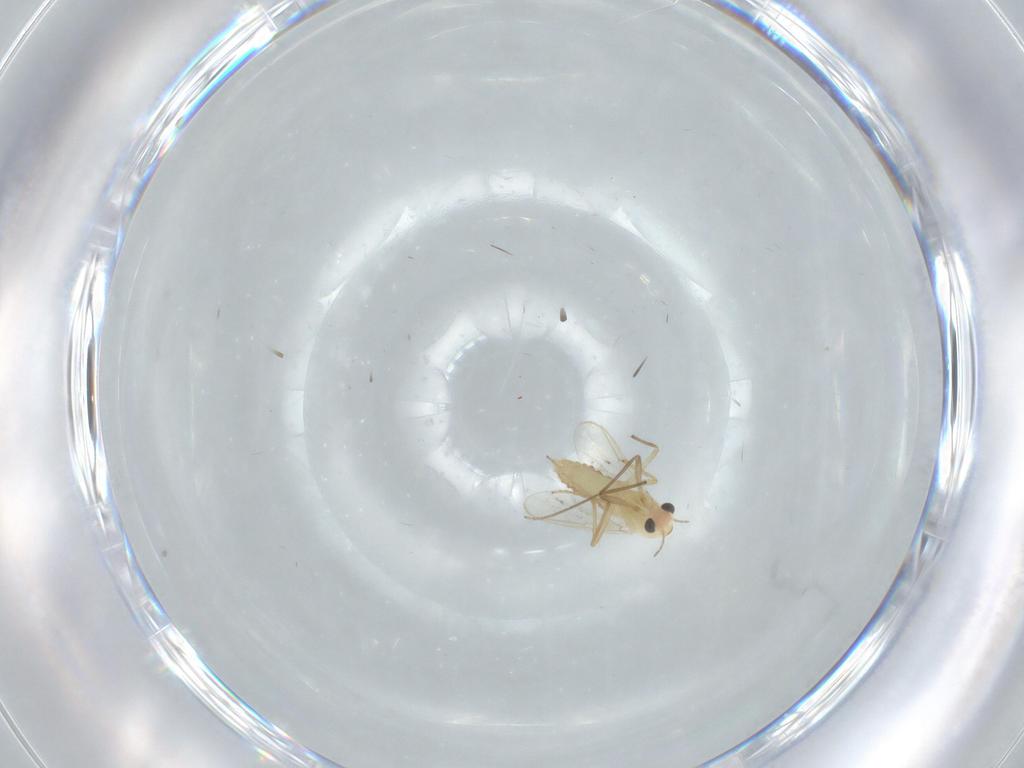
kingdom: Animalia
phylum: Arthropoda
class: Insecta
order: Diptera
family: Chironomidae
